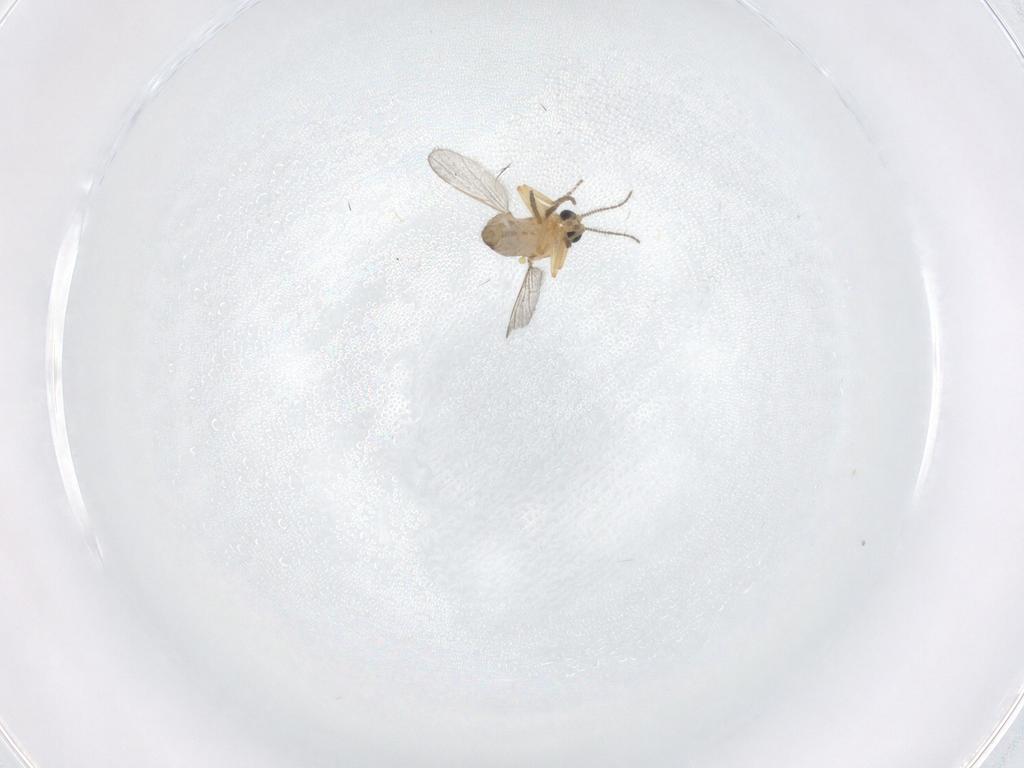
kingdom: Animalia
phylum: Arthropoda
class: Insecta
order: Diptera
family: Ceratopogonidae
